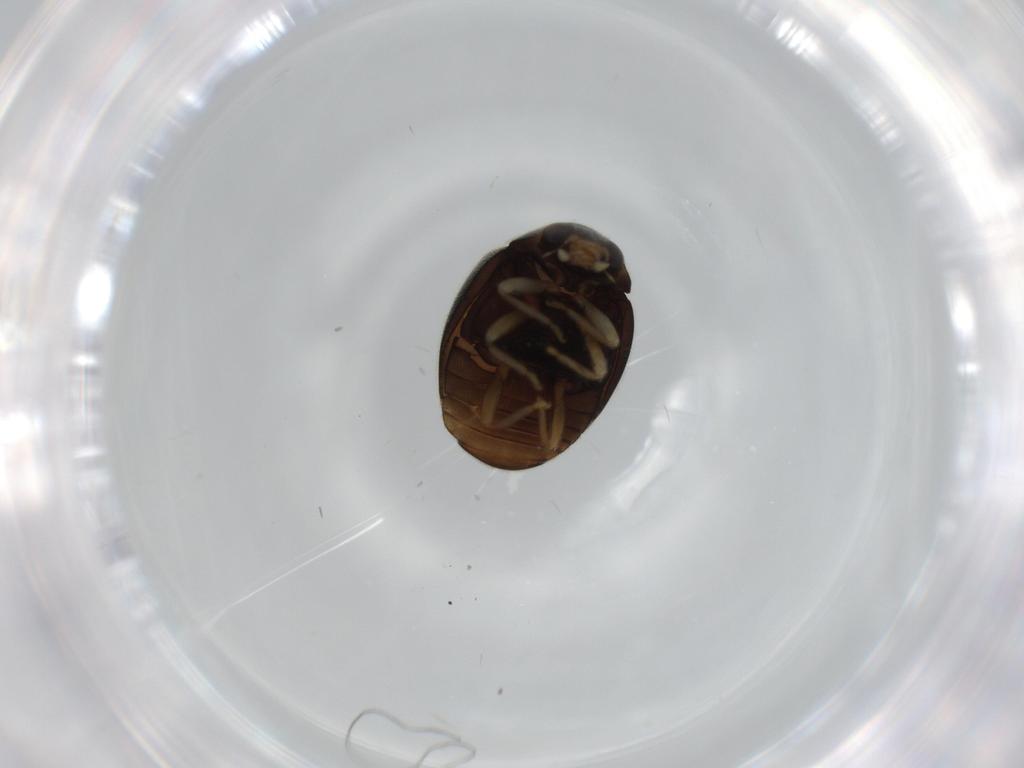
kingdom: Animalia
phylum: Arthropoda
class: Insecta
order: Coleoptera
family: Coccinellidae
